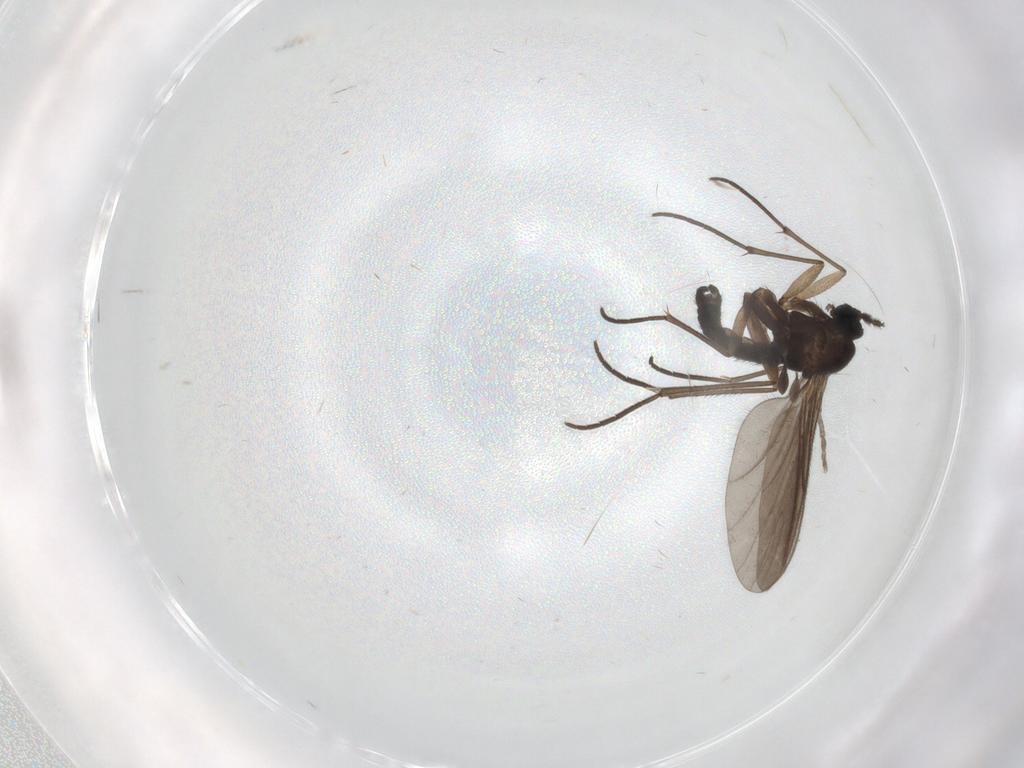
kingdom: Animalia
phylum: Arthropoda
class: Insecta
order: Diptera
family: Sciaridae
